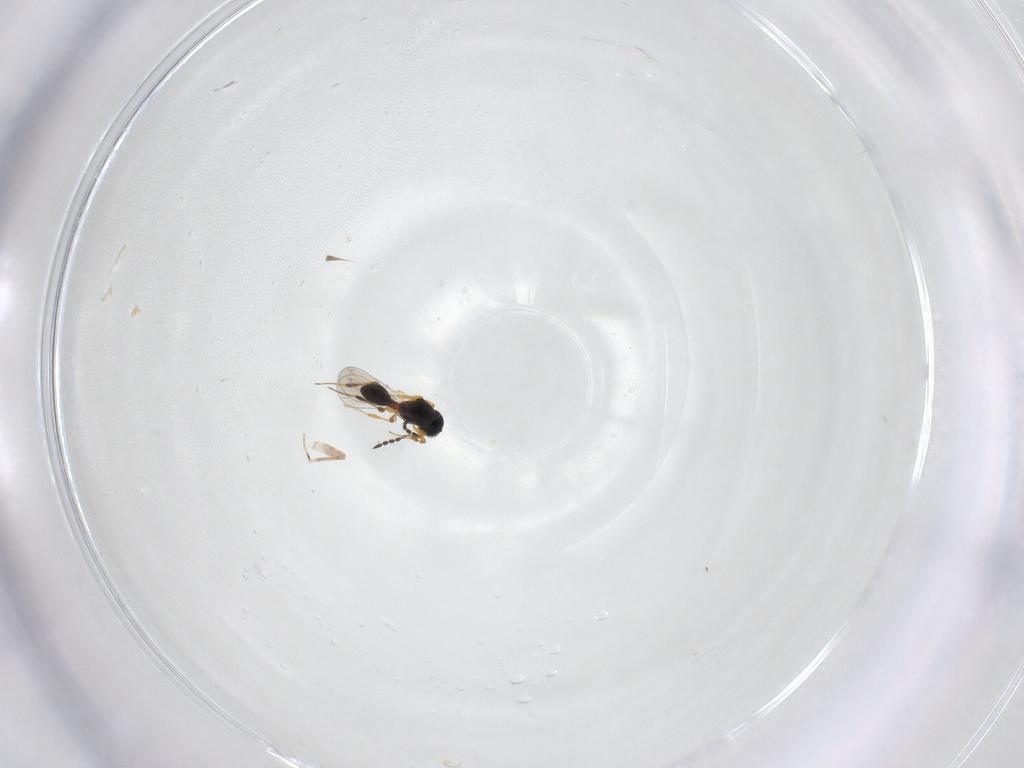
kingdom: Animalia
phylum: Arthropoda
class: Insecta
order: Hymenoptera
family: Platygastridae
